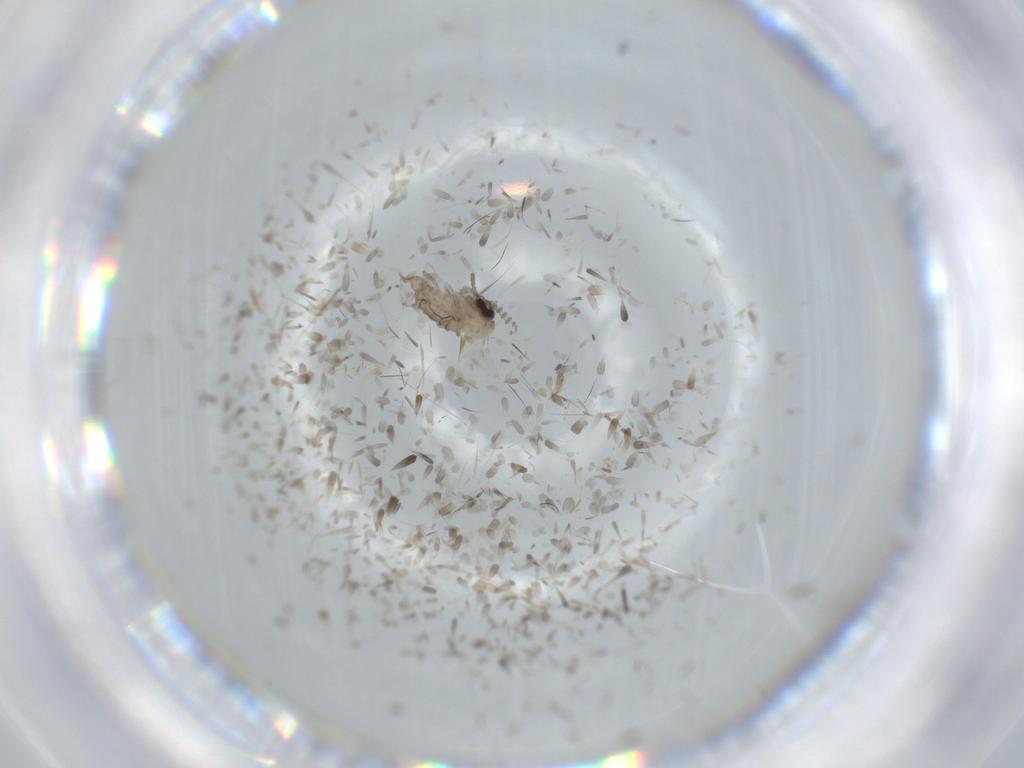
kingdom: Animalia
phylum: Arthropoda
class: Insecta
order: Diptera
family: Psychodidae
